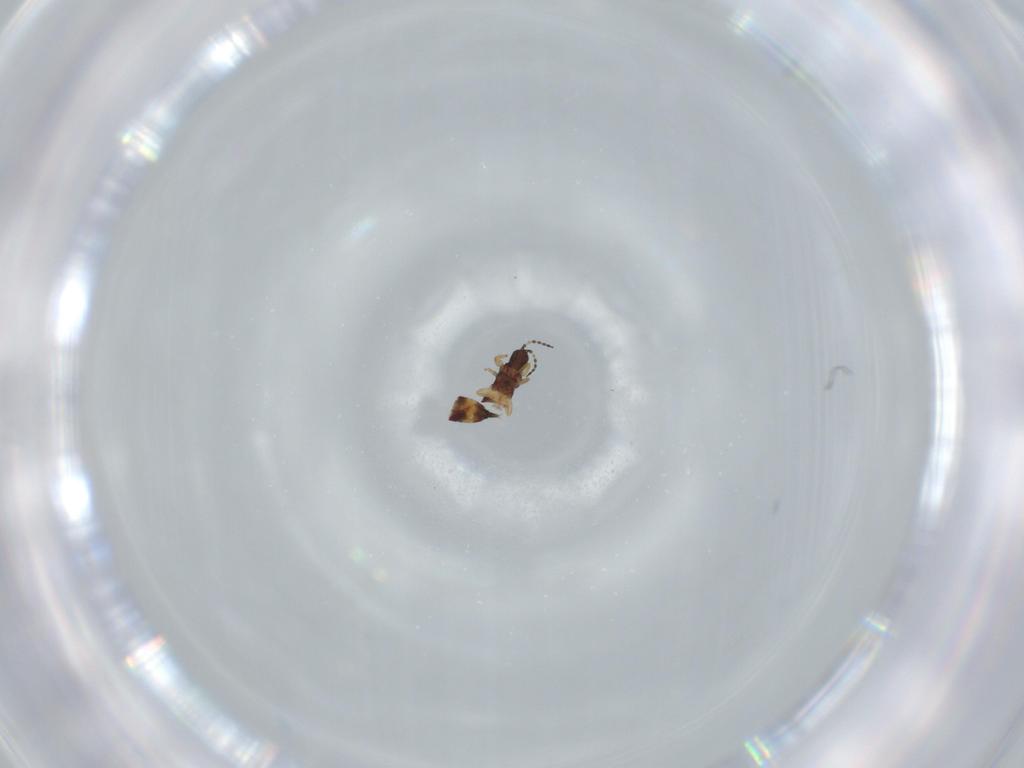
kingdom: Animalia
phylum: Arthropoda
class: Insecta
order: Thysanoptera
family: Phlaeothripidae
